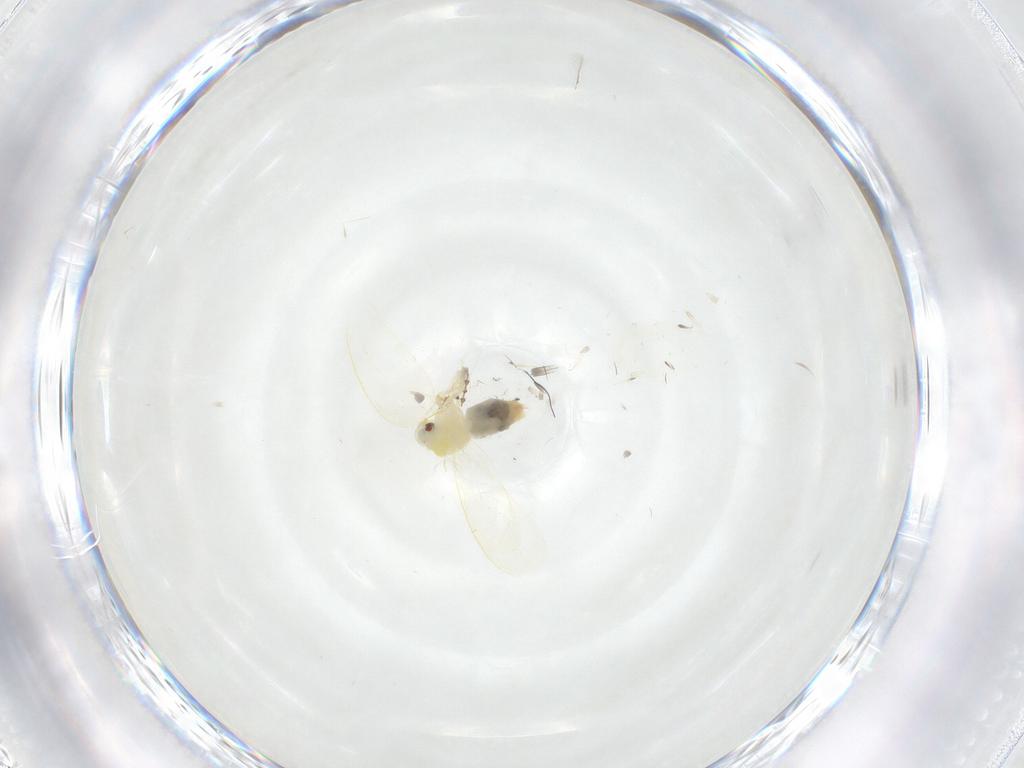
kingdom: Animalia
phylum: Arthropoda
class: Insecta
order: Hemiptera
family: Aleyrodidae
